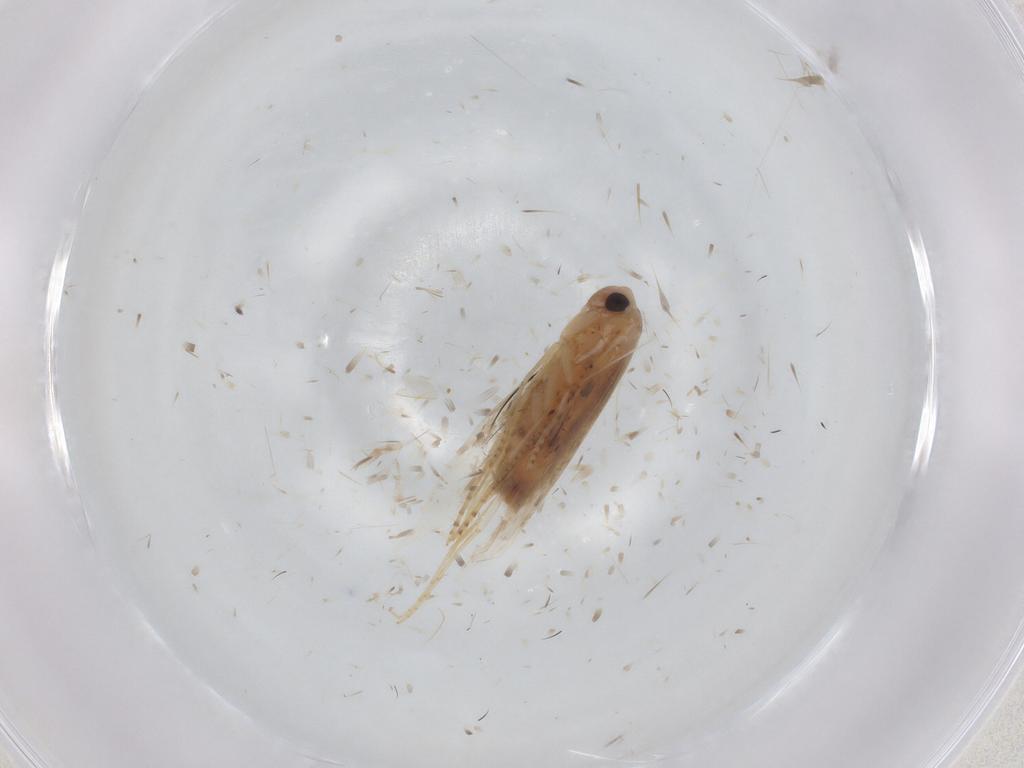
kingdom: Animalia
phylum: Arthropoda
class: Insecta
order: Lepidoptera
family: Bucculatricidae
